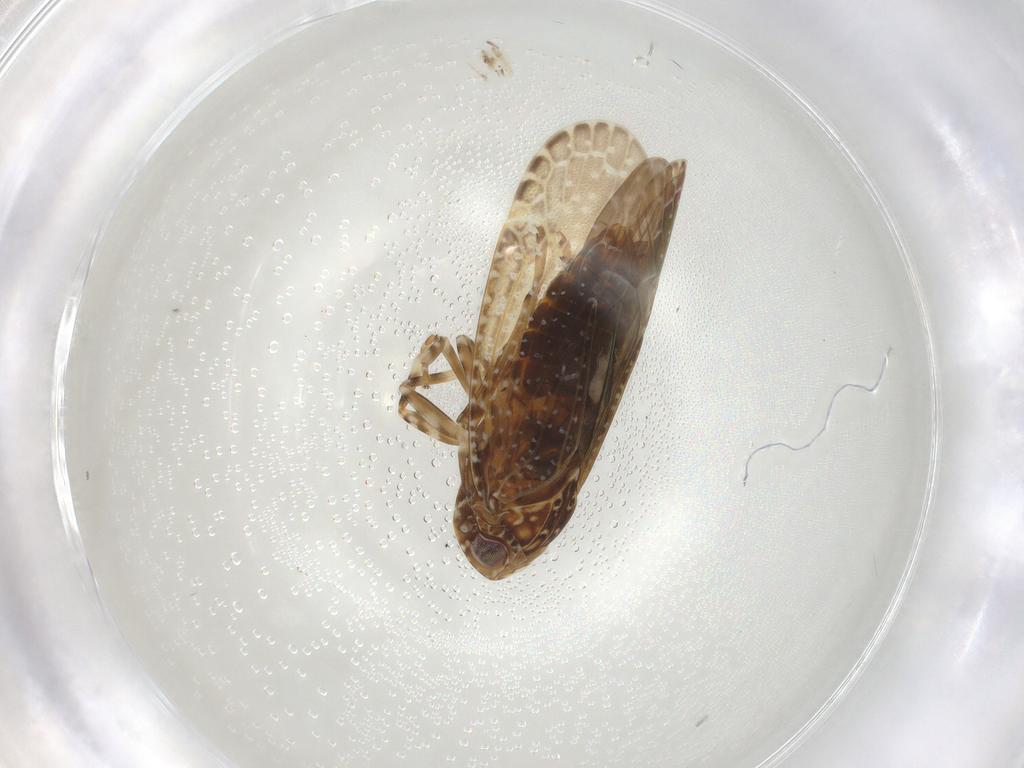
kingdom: Animalia
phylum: Arthropoda
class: Insecta
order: Hemiptera
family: Achilidae
